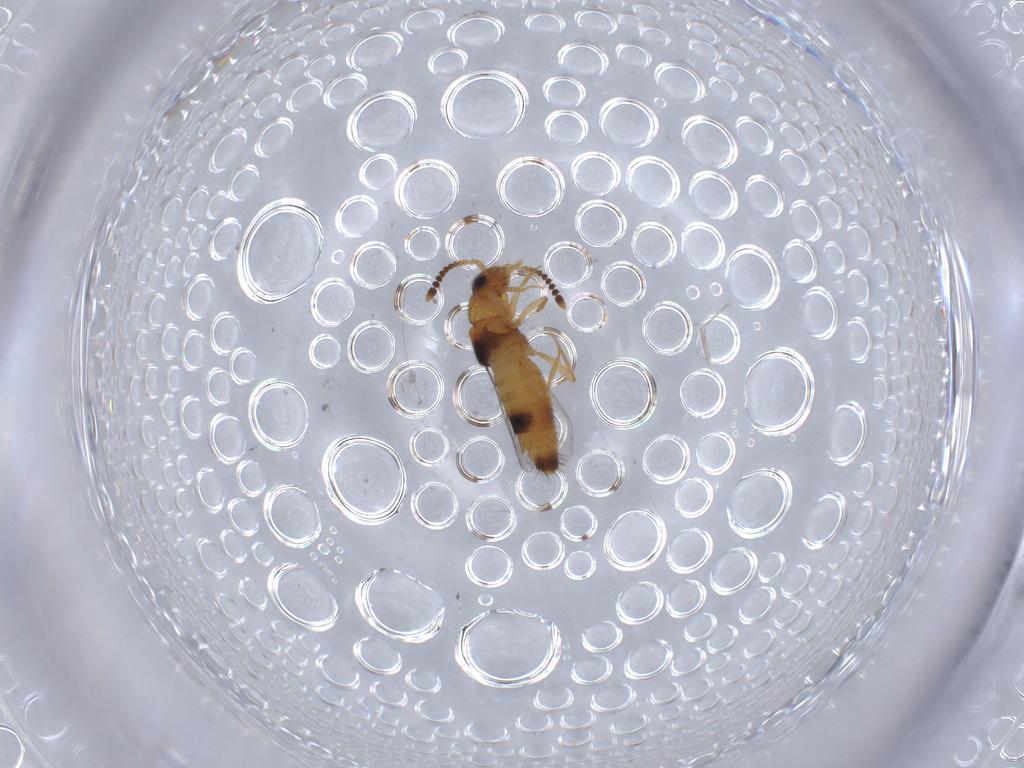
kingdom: Animalia
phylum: Arthropoda
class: Insecta
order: Coleoptera
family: Staphylinidae
